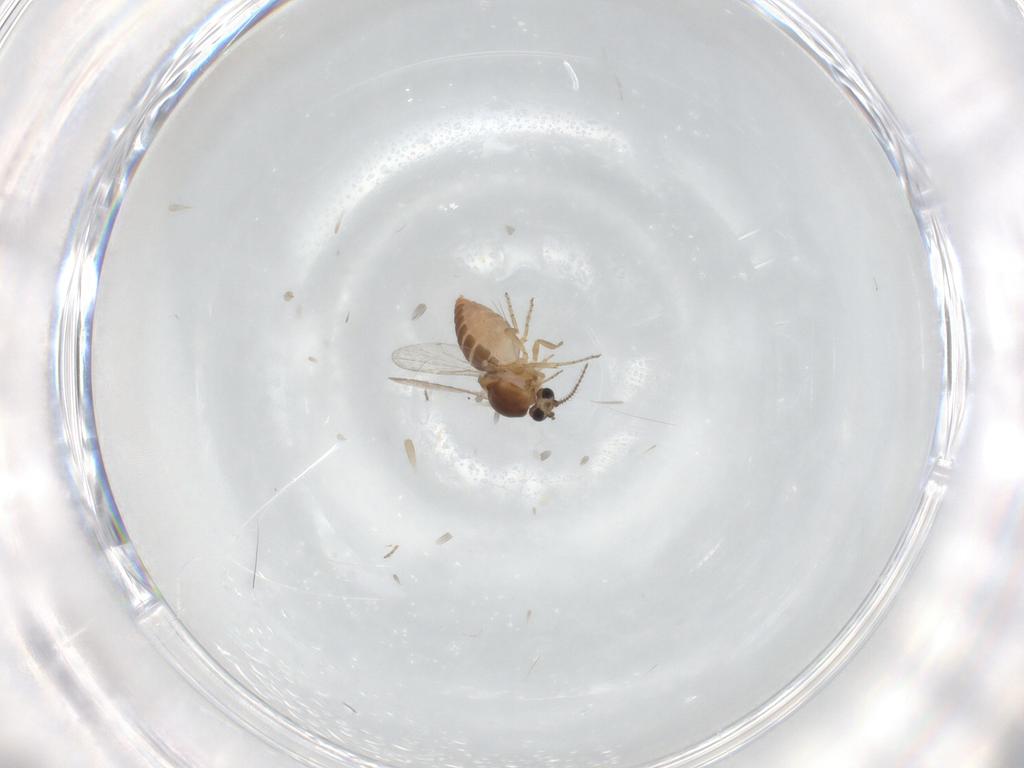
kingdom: Animalia
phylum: Arthropoda
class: Insecta
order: Diptera
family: Ceratopogonidae
